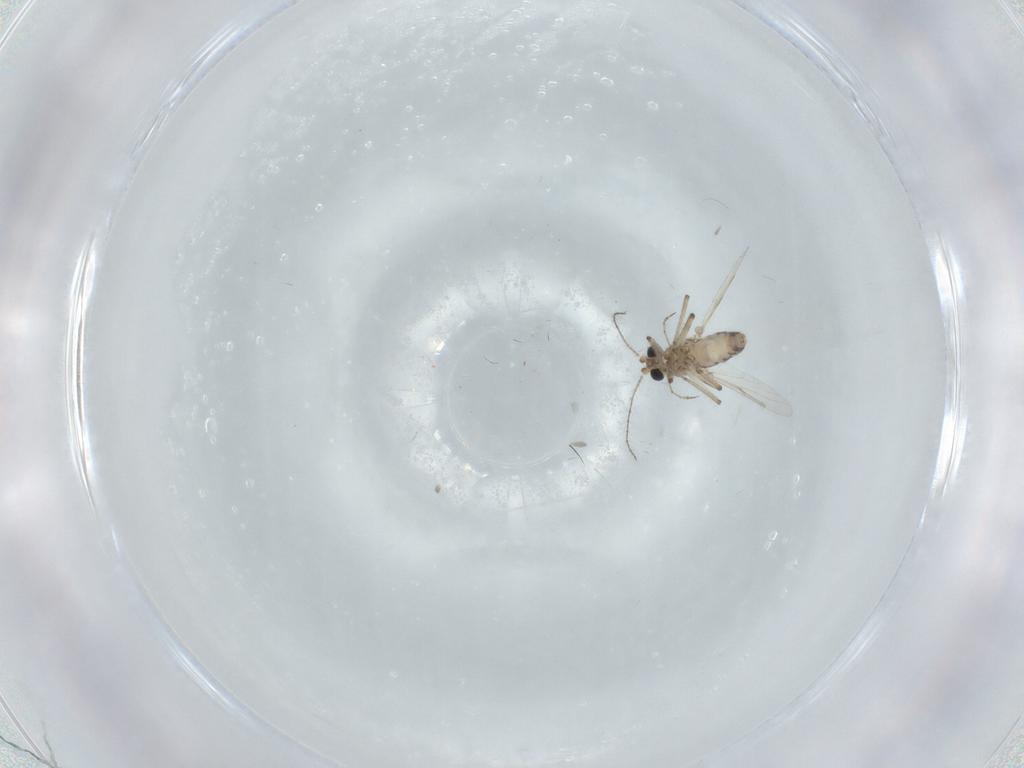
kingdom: Animalia
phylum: Arthropoda
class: Insecta
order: Diptera
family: Ceratopogonidae
